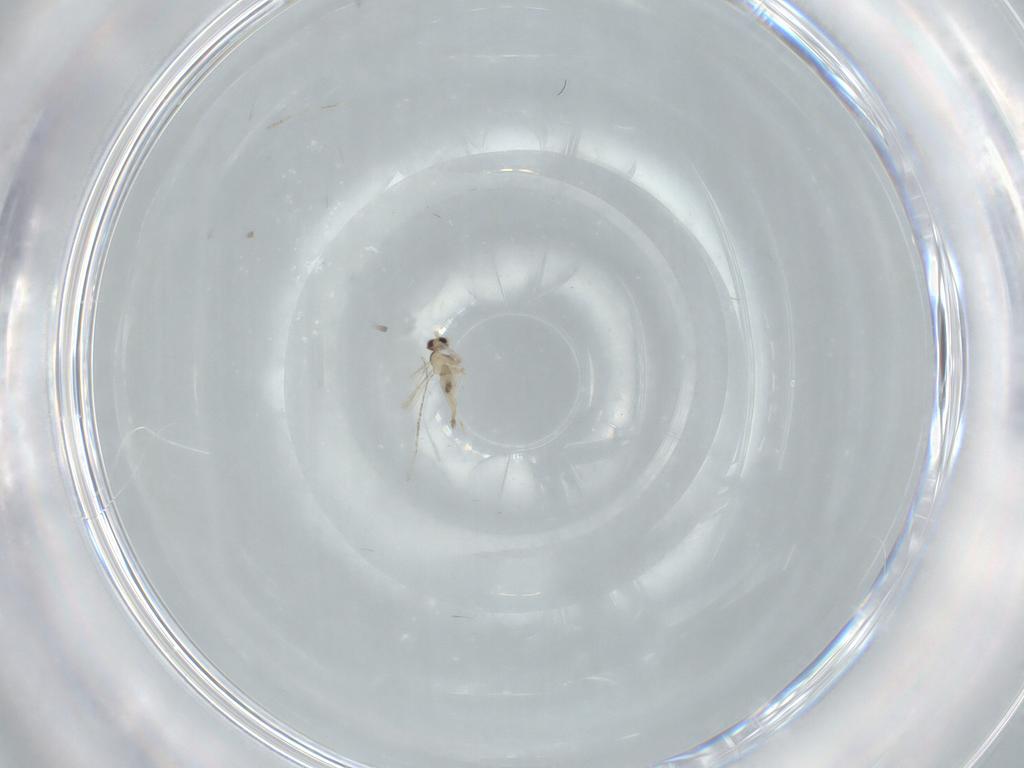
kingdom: Animalia
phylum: Arthropoda
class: Insecta
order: Diptera
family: Cecidomyiidae
